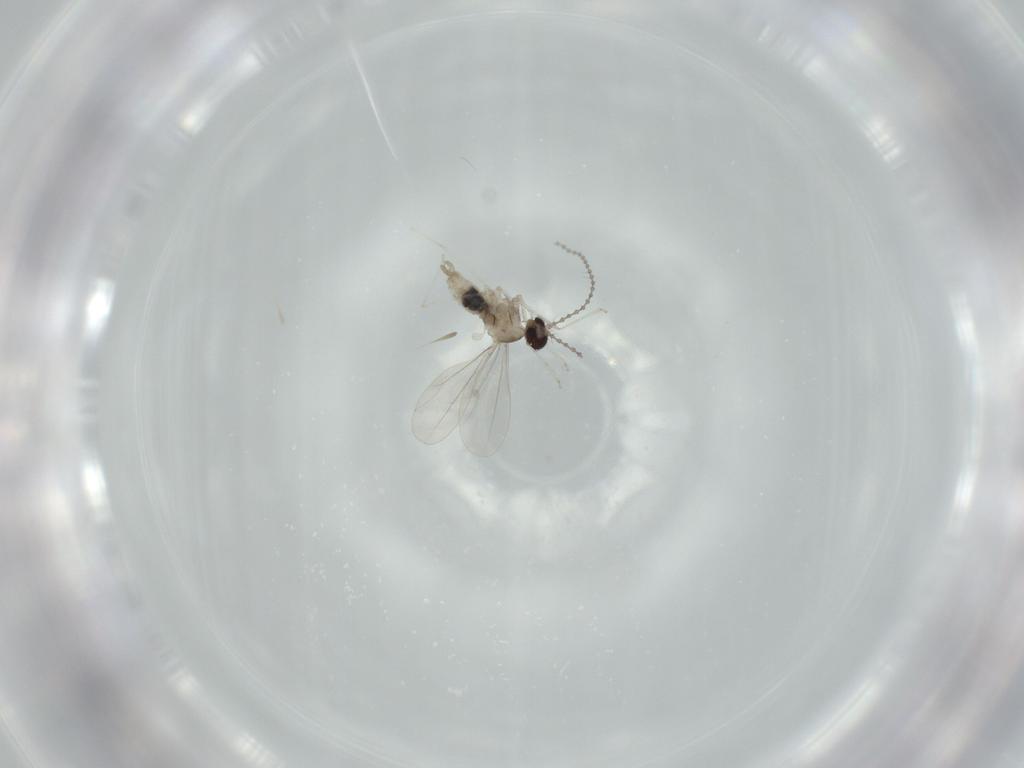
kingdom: Animalia
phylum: Arthropoda
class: Insecta
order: Diptera
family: Cecidomyiidae
